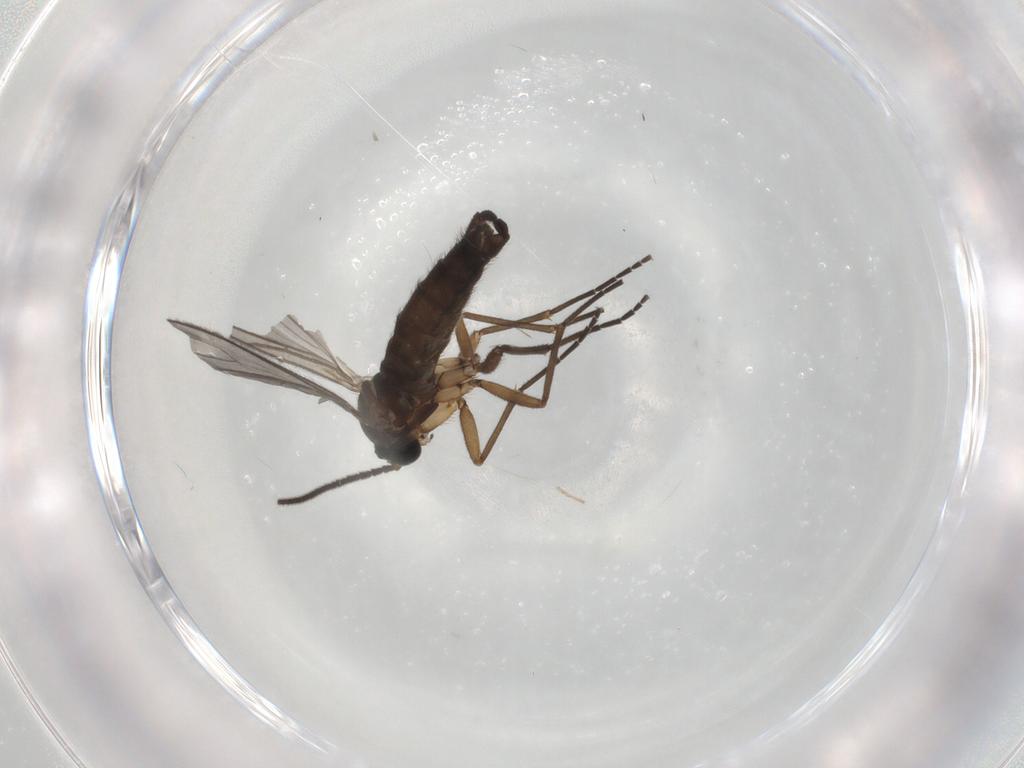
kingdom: Animalia
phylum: Arthropoda
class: Insecta
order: Diptera
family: Sciaridae
